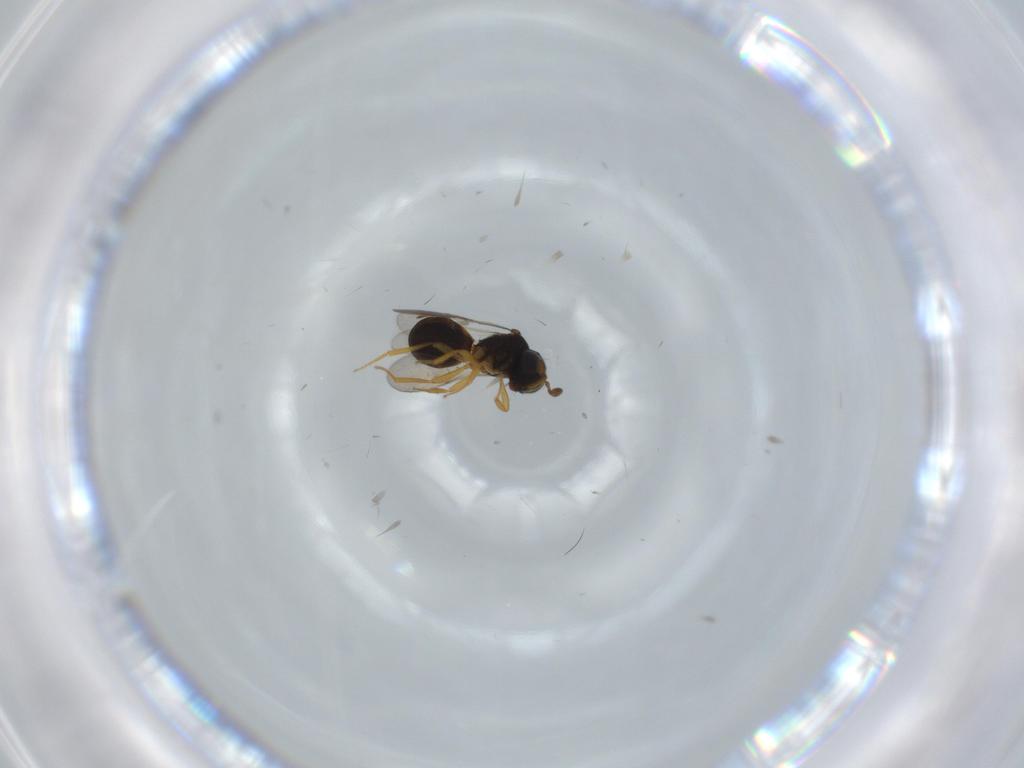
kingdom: Animalia
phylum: Arthropoda
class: Insecta
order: Hymenoptera
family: Scelionidae
